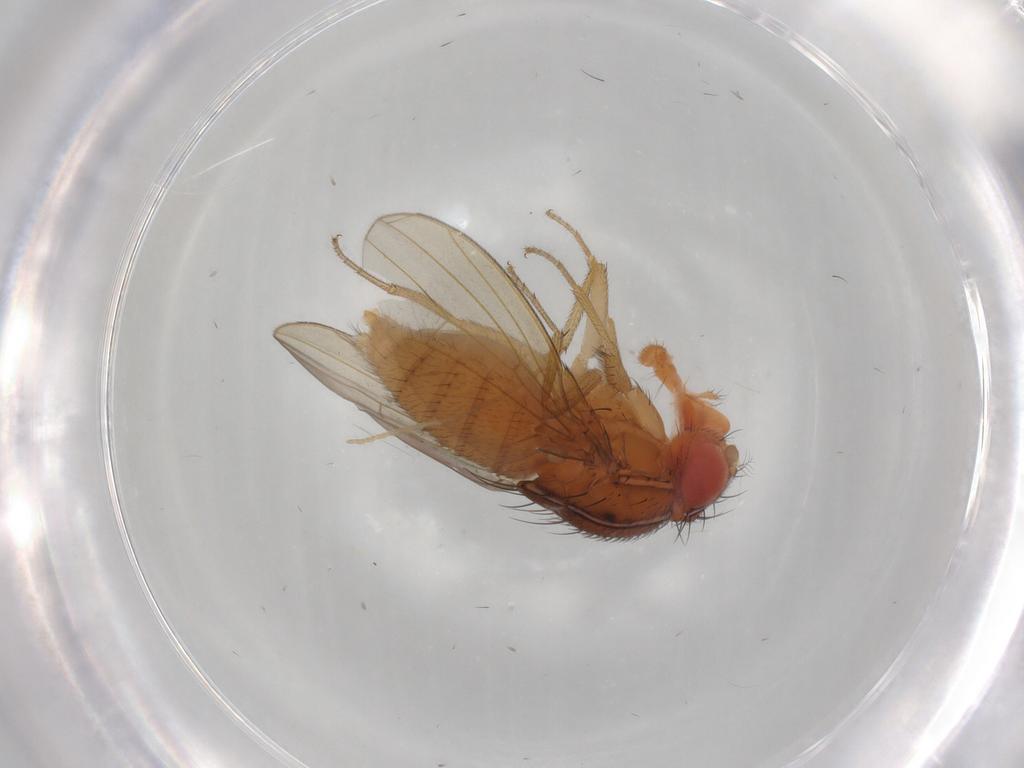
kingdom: Animalia
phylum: Arthropoda
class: Insecta
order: Diptera
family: Drosophilidae
